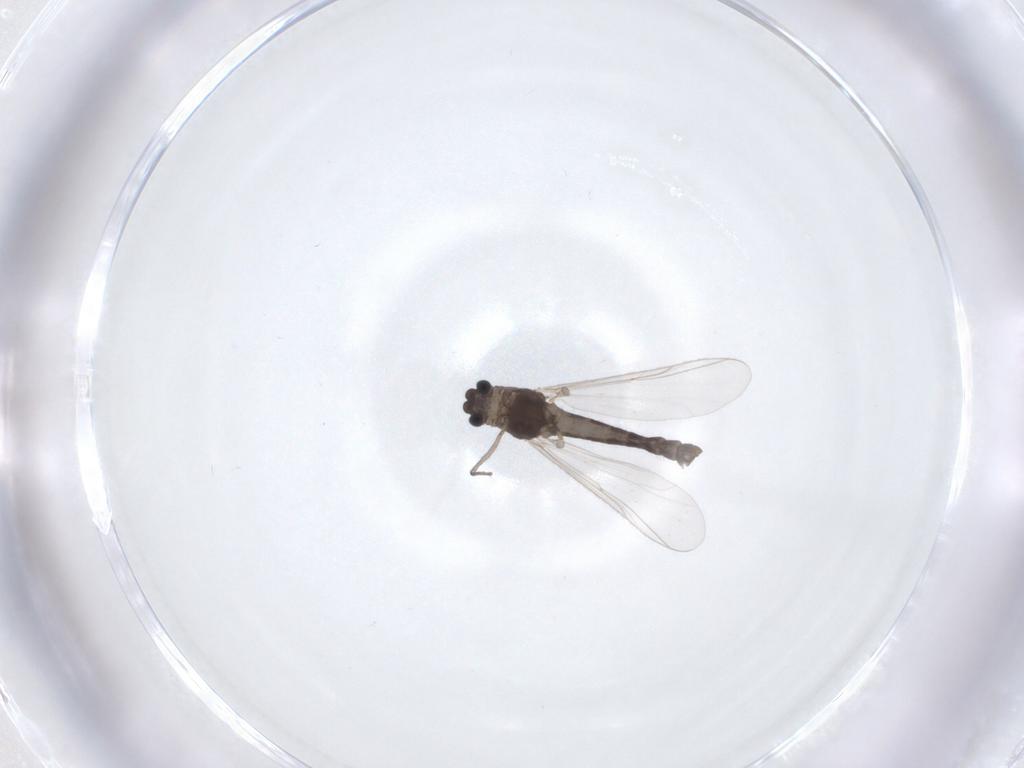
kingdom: Animalia
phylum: Arthropoda
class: Insecta
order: Diptera
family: Chironomidae
